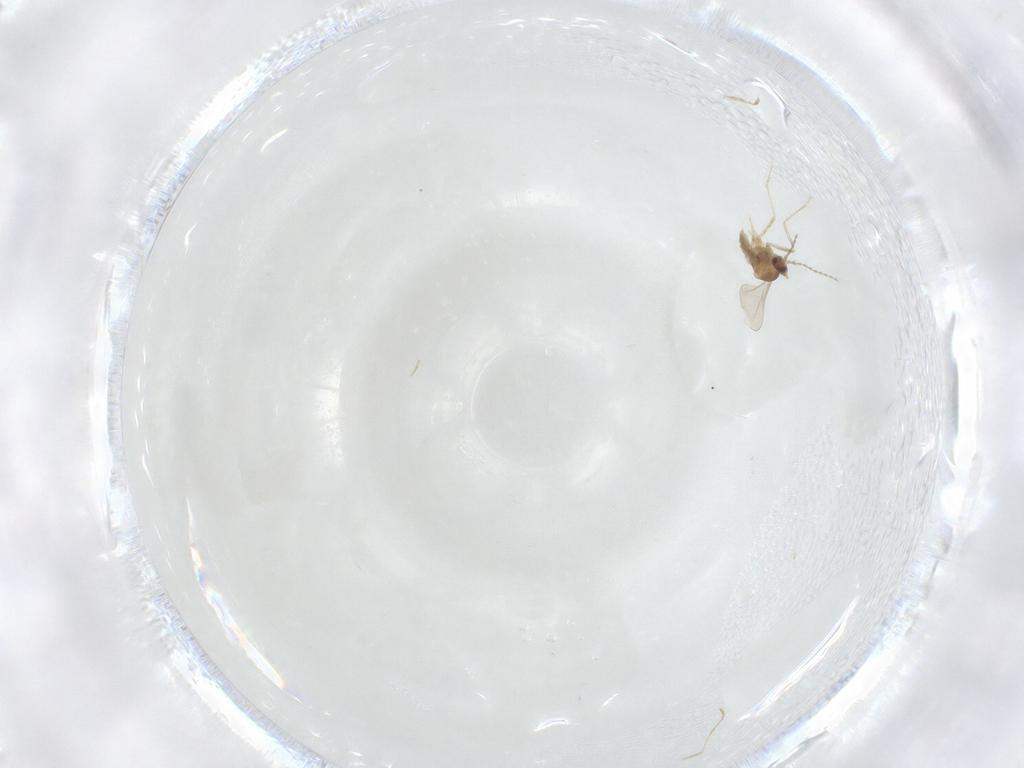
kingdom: Animalia
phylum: Arthropoda
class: Insecta
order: Diptera
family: Cecidomyiidae
